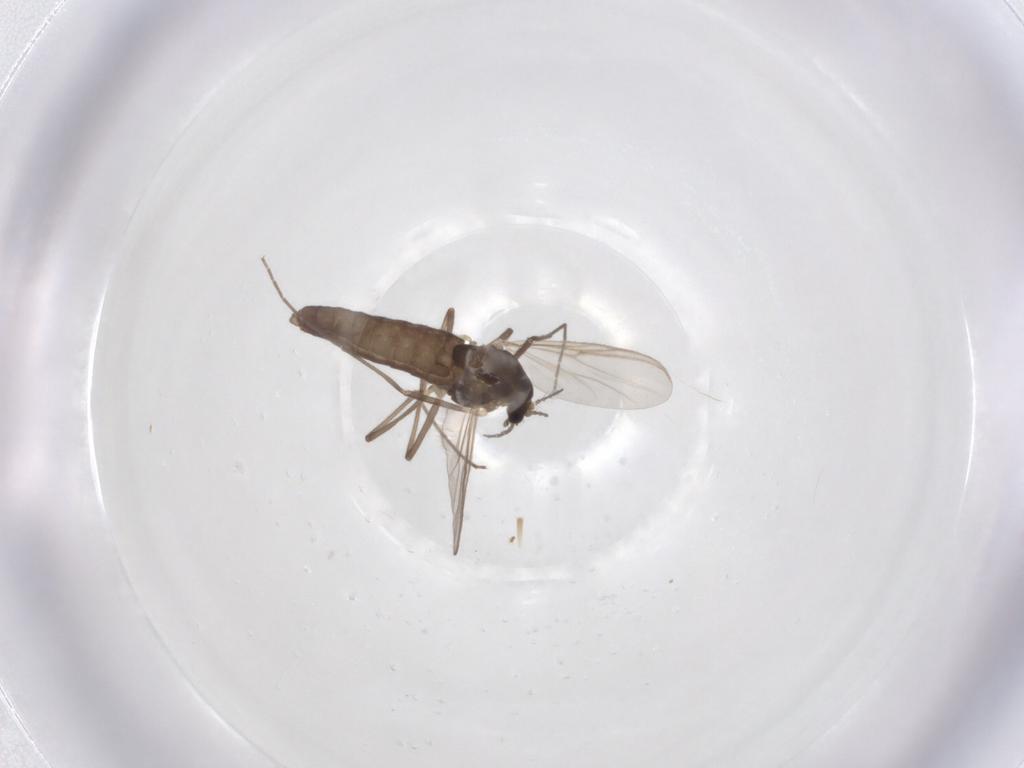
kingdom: Animalia
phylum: Arthropoda
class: Insecta
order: Diptera
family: Chironomidae
